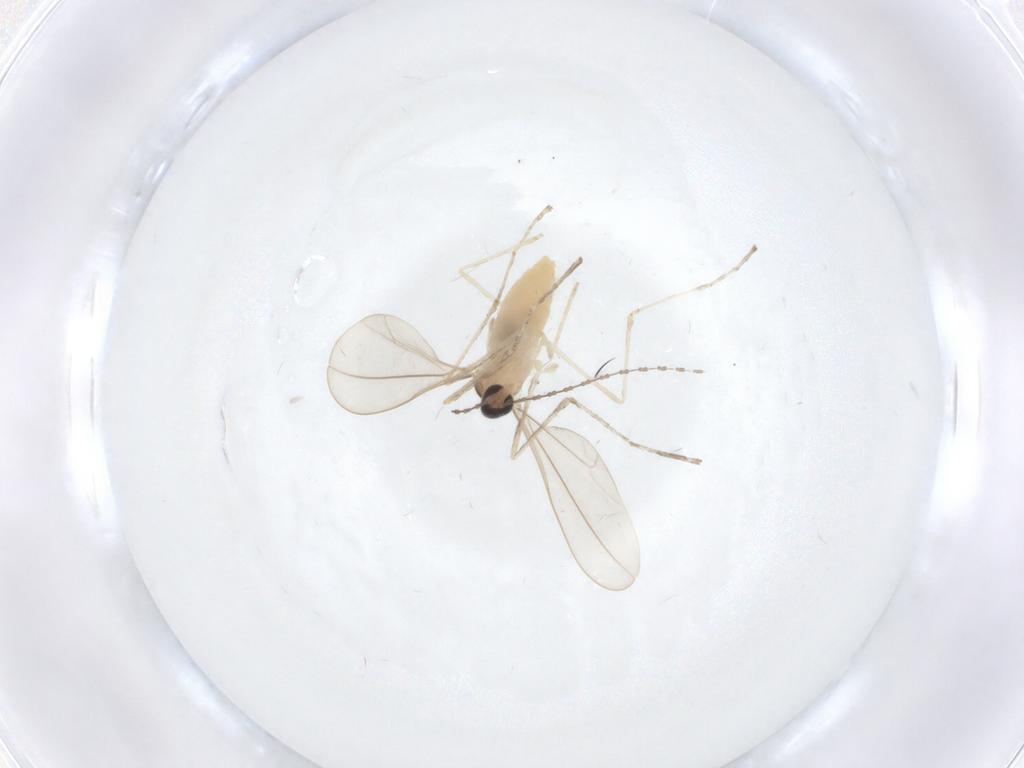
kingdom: Animalia
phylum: Arthropoda
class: Insecta
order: Diptera
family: Cecidomyiidae
